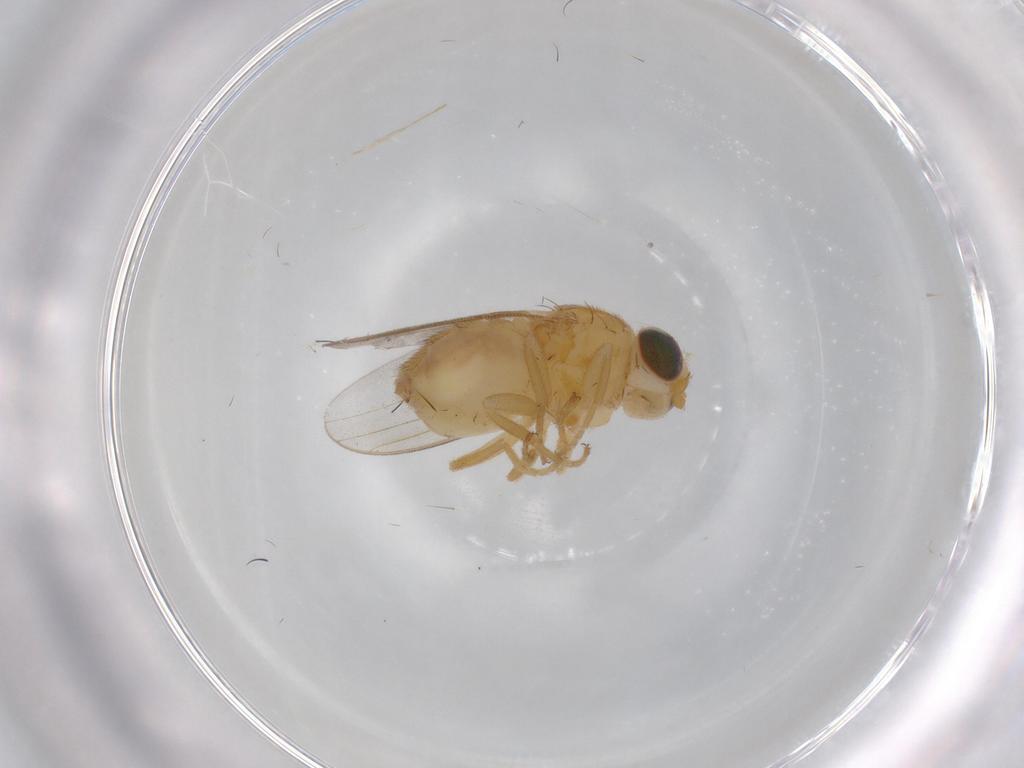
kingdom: Animalia
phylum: Arthropoda
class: Insecta
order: Diptera
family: Chloropidae
